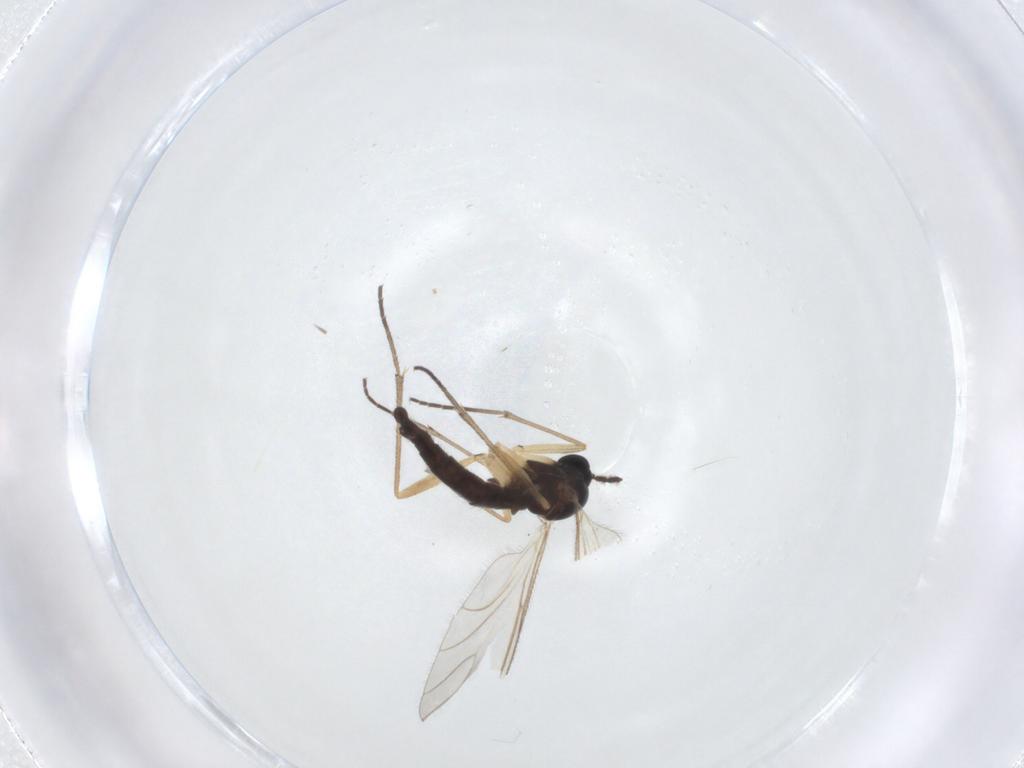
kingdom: Animalia
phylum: Arthropoda
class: Insecta
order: Diptera
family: Sciaridae
